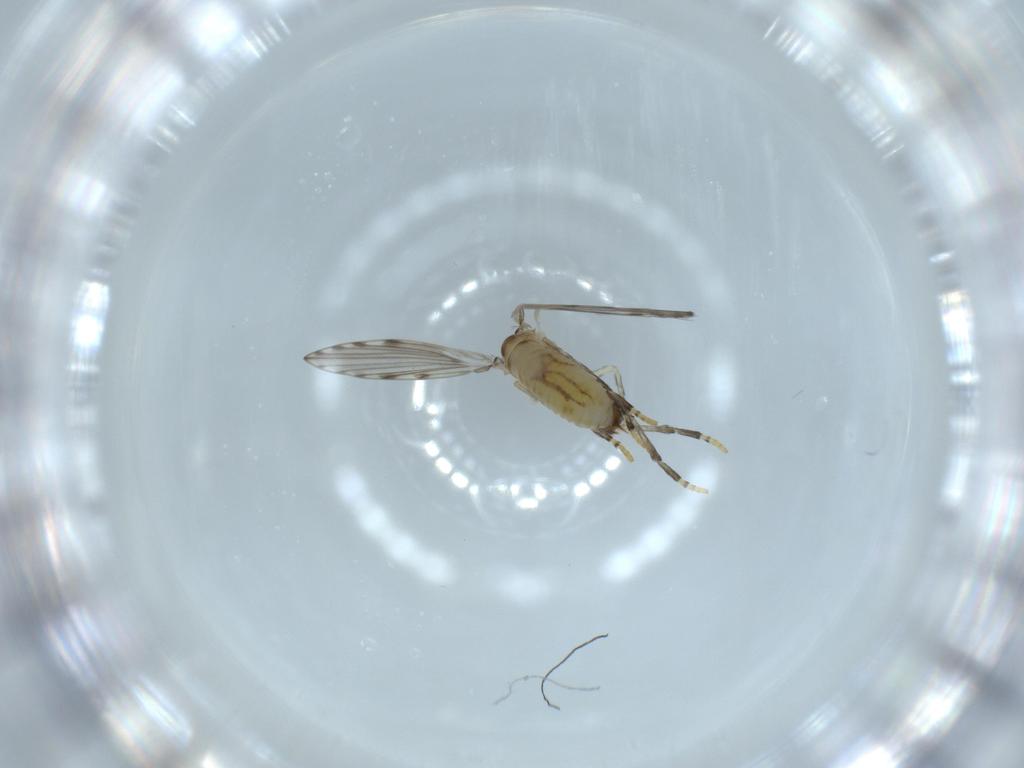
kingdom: Animalia
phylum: Arthropoda
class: Insecta
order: Diptera
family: Psychodidae
